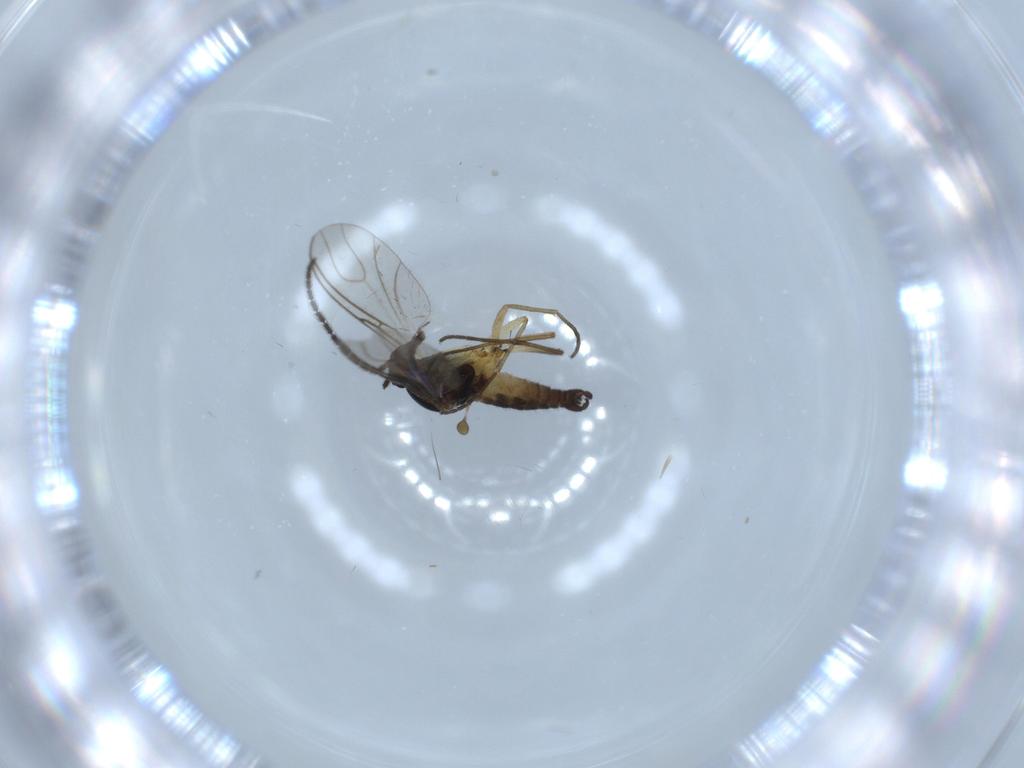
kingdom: Animalia
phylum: Arthropoda
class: Insecta
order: Diptera
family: Sciaridae
